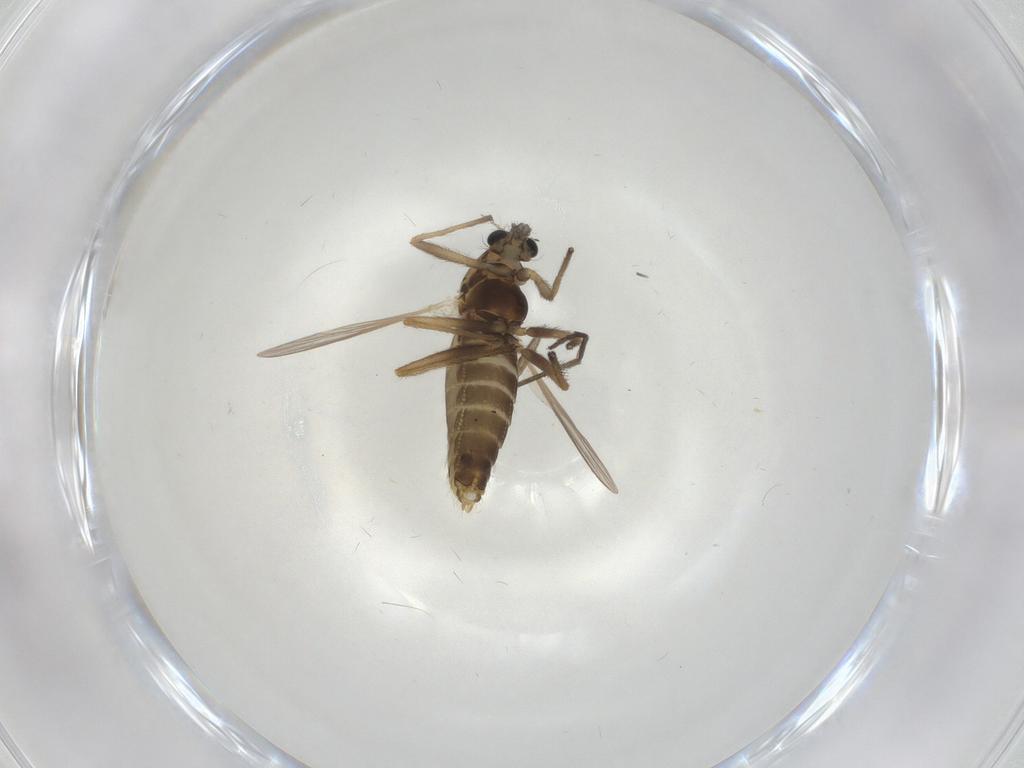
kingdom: Animalia
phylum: Arthropoda
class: Insecta
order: Diptera
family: Chironomidae
